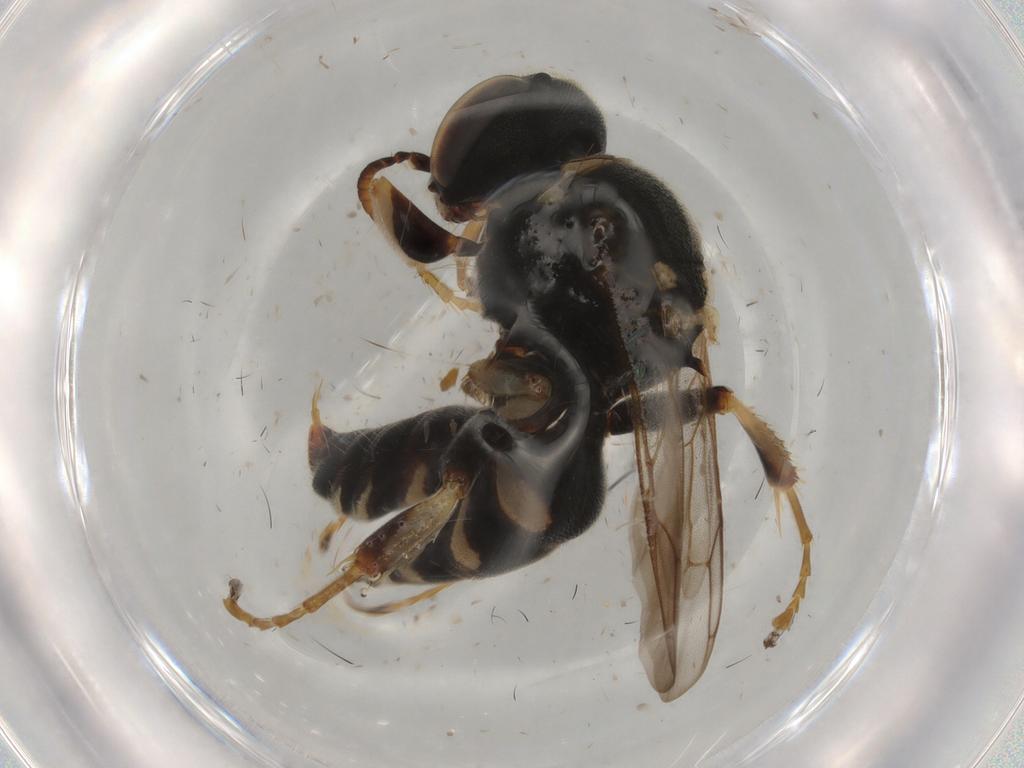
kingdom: Animalia
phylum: Arthropoda
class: Insecta
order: Hymenoptera
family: Crabronidae
